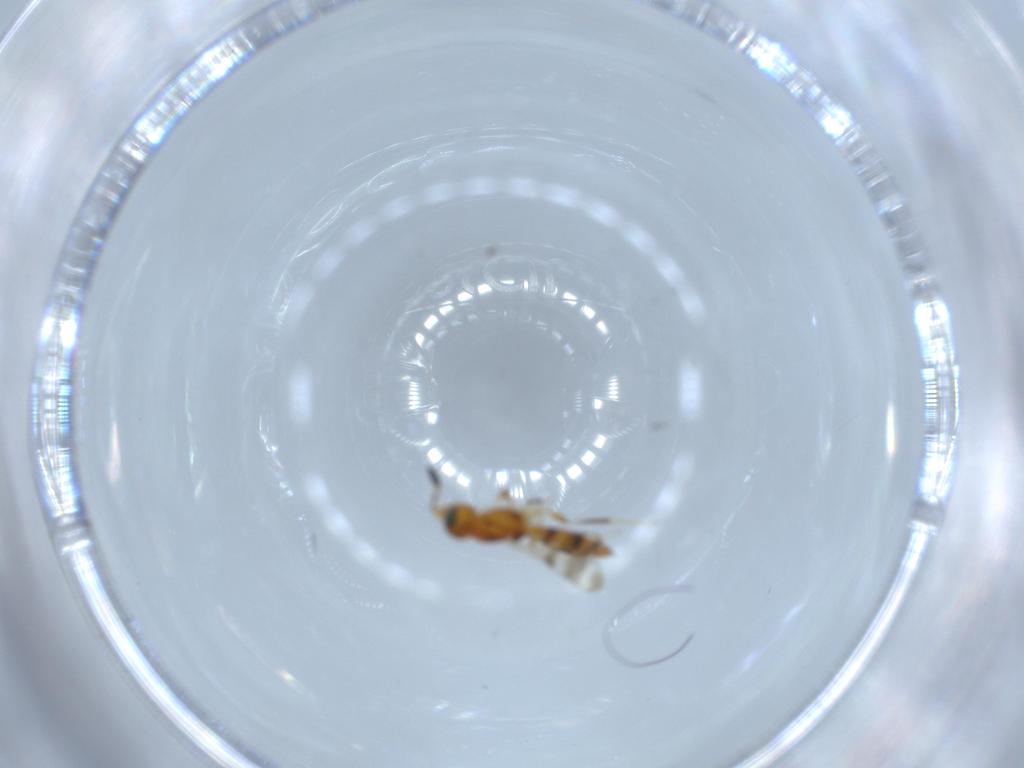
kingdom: Animalia
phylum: Arthropoda
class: Insecta
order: Hymenoptera
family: Scelionidae
